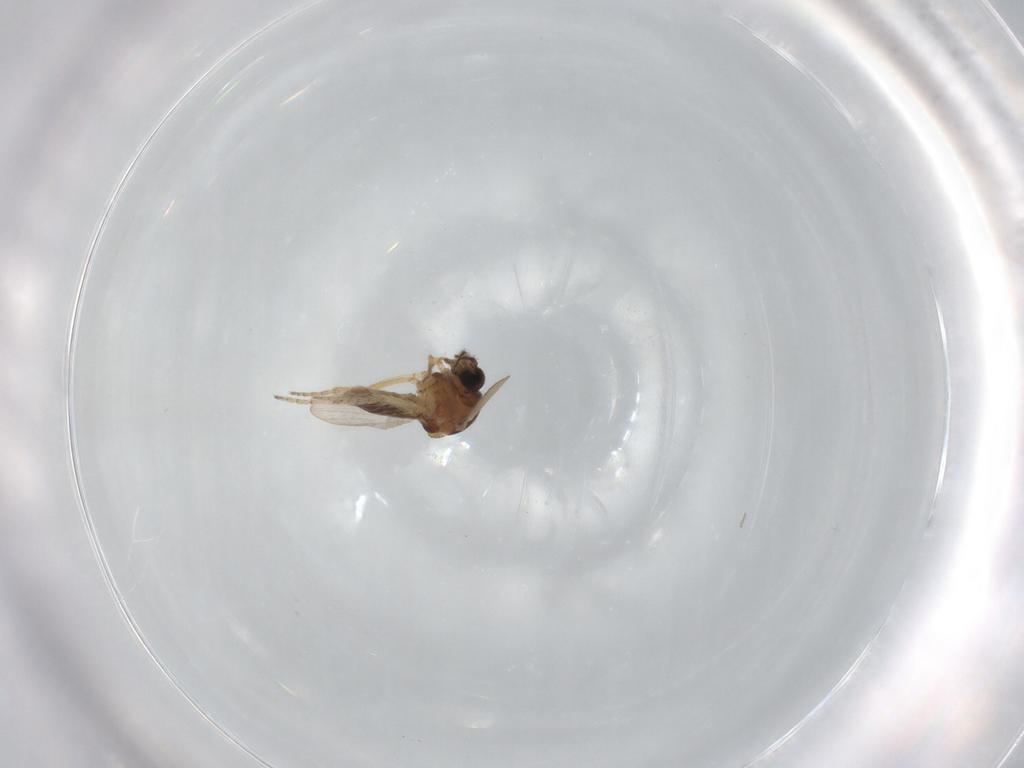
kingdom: Animalia
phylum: Arthropoda
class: Insecta
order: Diptera
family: Ceratopogonidae
